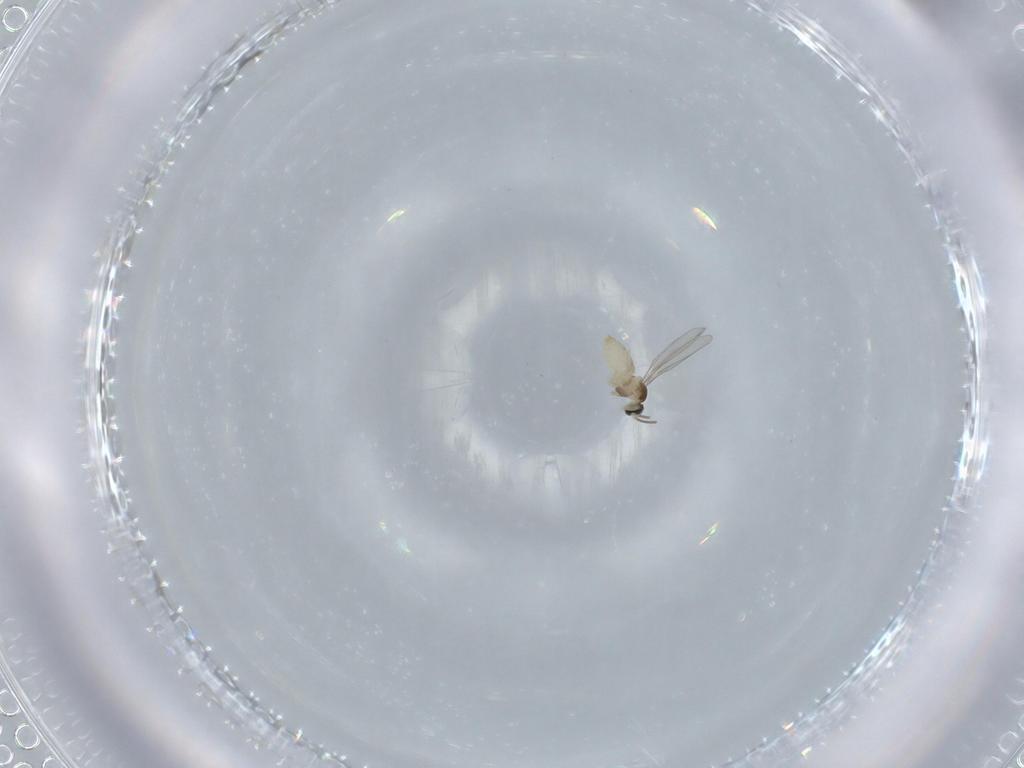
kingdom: Animalia
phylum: Arthropoda
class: Insecta
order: Diptera
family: Cecidomyiidae
